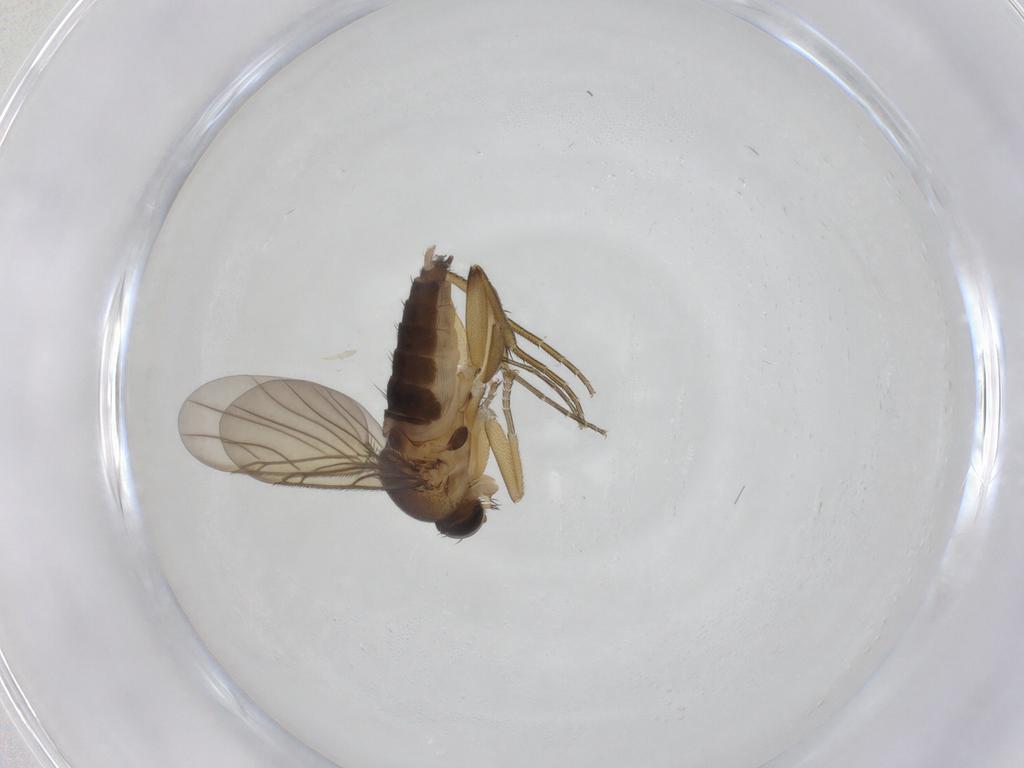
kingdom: Animalia
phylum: Arthropoda
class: Insecta
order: Diptera
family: Phoridae
